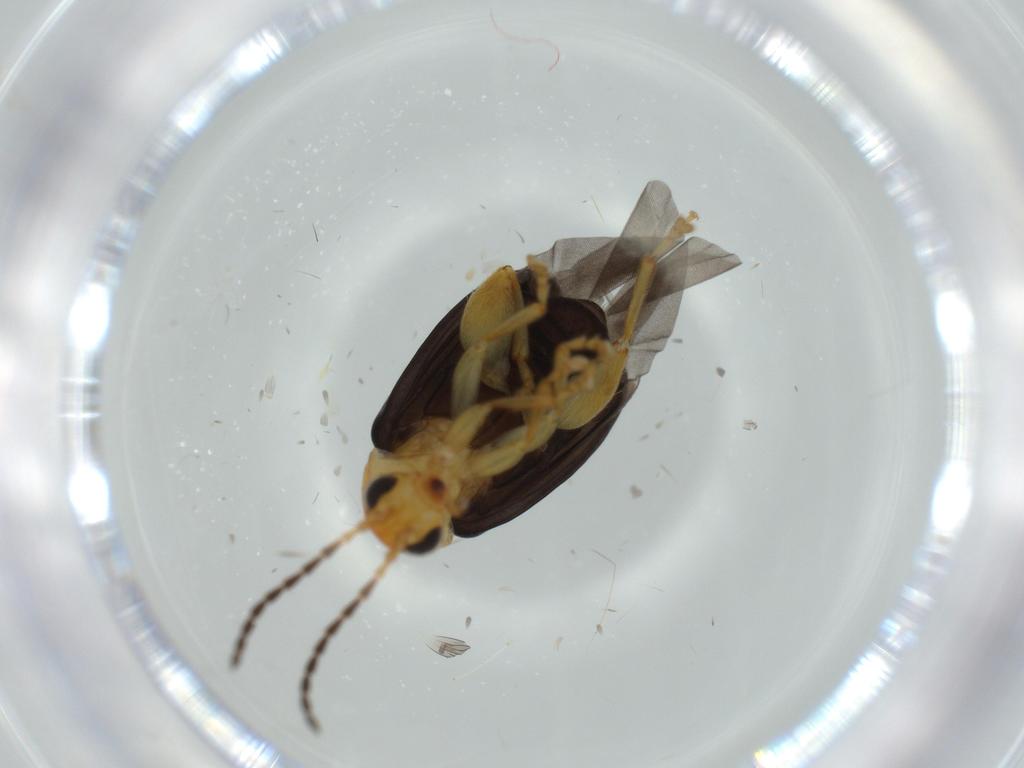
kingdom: Animalia
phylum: Arthropoda
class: Insecta
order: Coleoptera
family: Chrysomelidae
